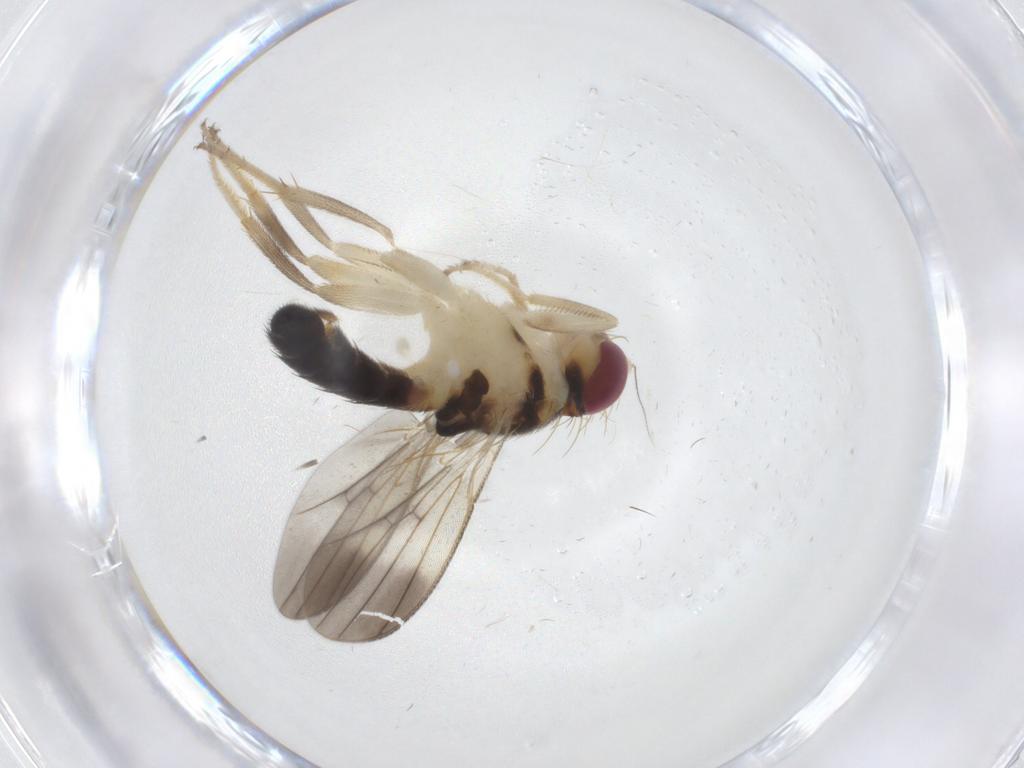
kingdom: Animalia
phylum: Arthropoda
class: Insecta
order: Diptera
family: Clusiidae
